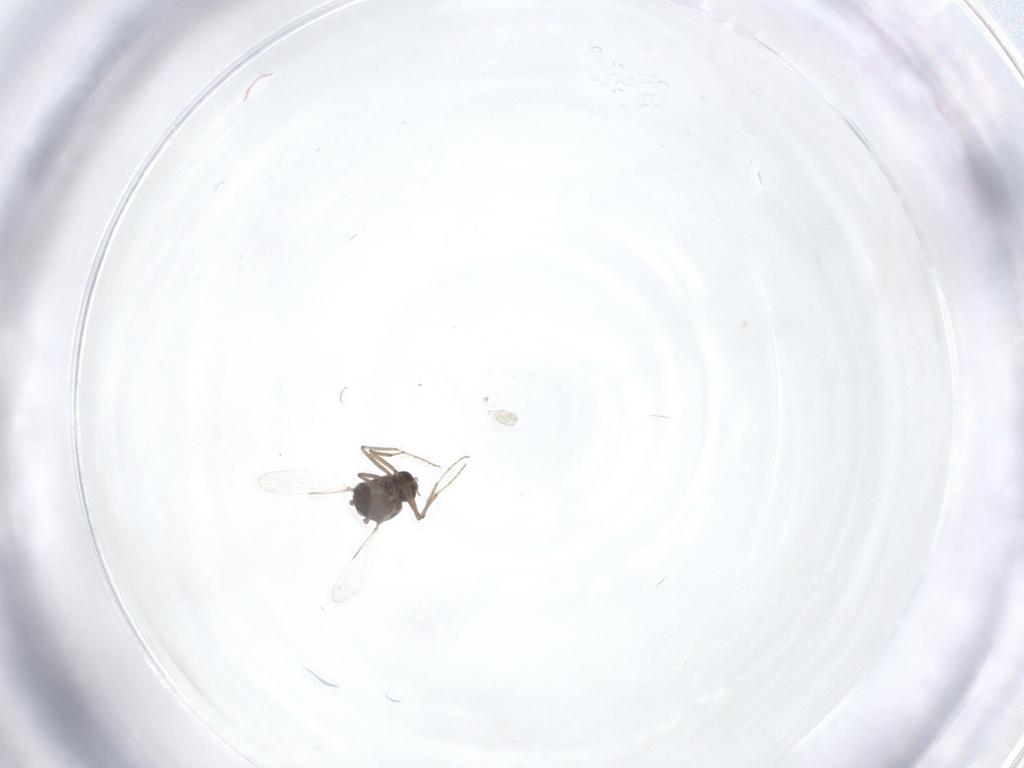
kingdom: Animalia
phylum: Arthropoda
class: Insecta
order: Diptera
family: Ceratopogonidae
